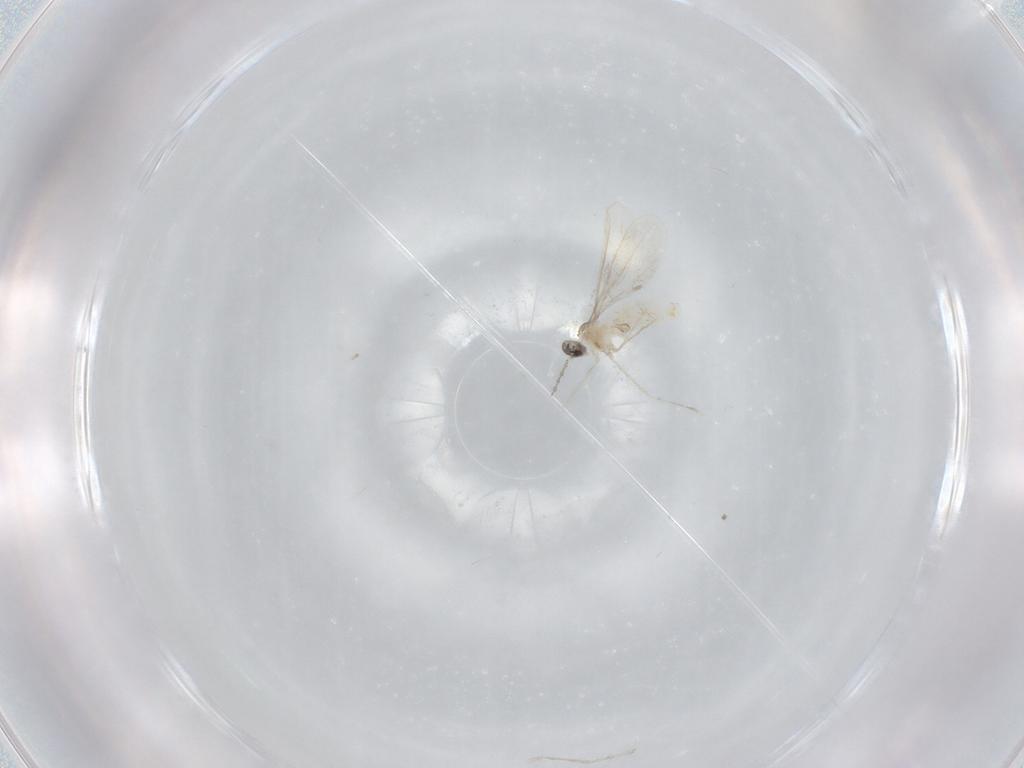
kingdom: Animalia
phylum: Arthropoda
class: Insecta
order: Diptera
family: Cecidomyiidae
